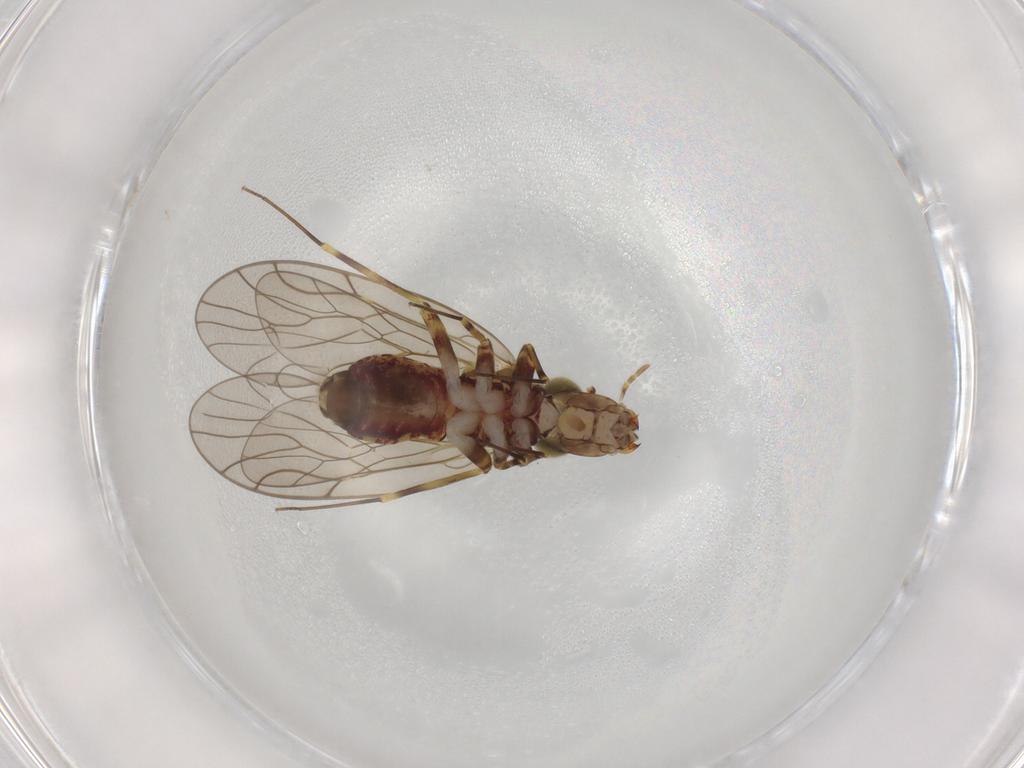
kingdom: Animalia
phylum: Arthropoda
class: Insecta
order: Psocodea
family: Philotarsidae
